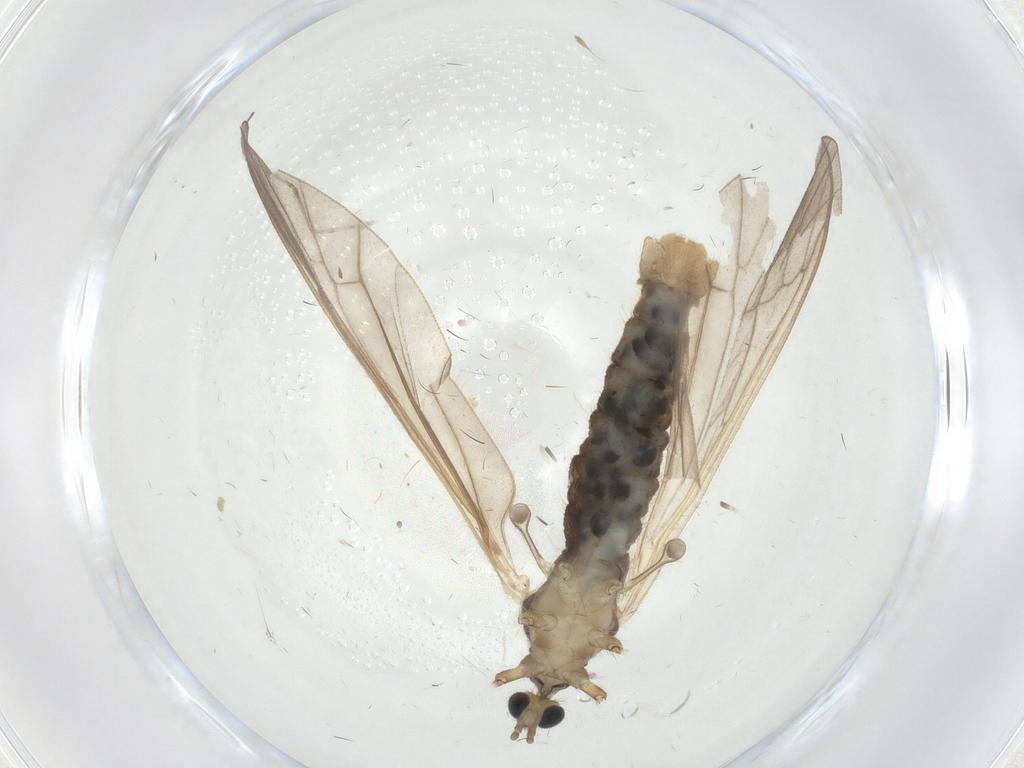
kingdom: Animalia
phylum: Arthropoda
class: Insecta
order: Diptera
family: Limoniidae
